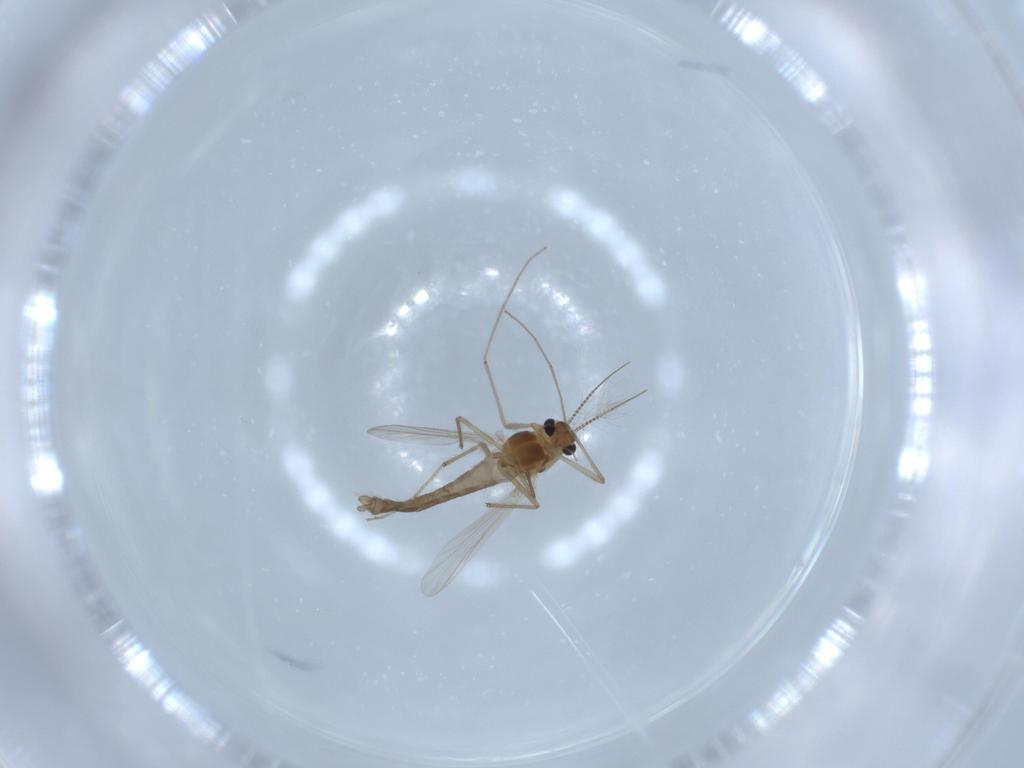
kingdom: Animalia
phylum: Arthropoda
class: Insecta
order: Diptera
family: Chironomidae
